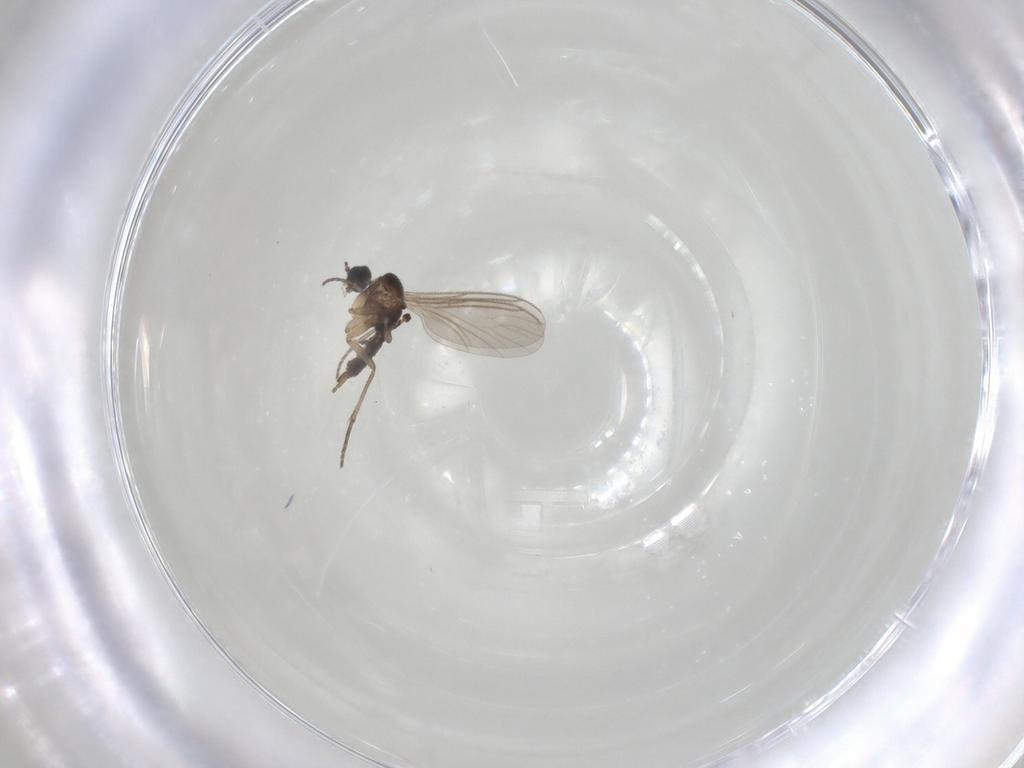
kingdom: Animalia
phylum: Arthropoda
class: Insecta
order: Diptera
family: Sciaridae
